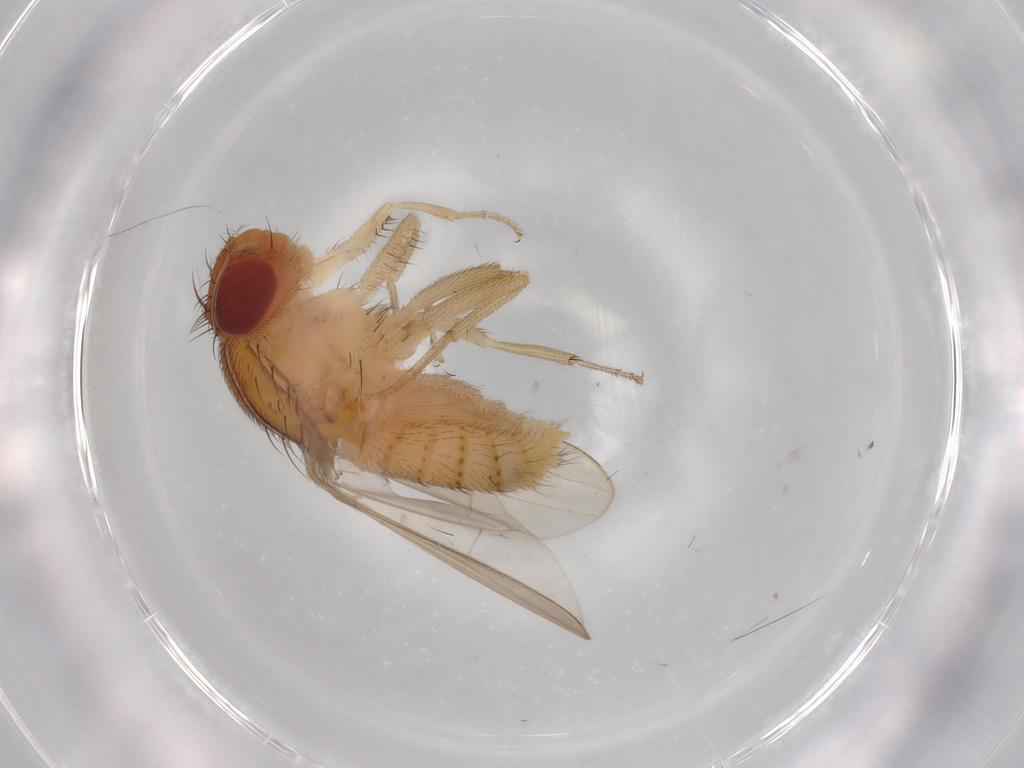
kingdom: Animalia
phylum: Arthropoda
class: Insecta
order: Diptera
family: Drosophilidae
